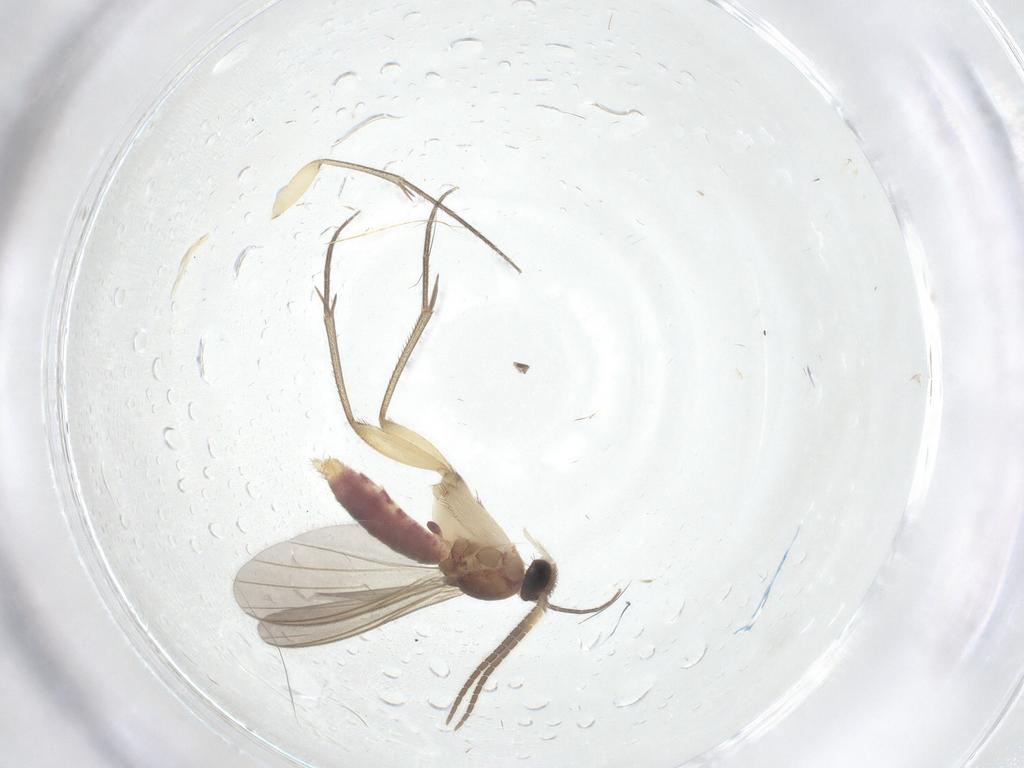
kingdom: Animalia
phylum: Arthropoda
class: Insecta
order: Diptera
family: Mycetophilidae
